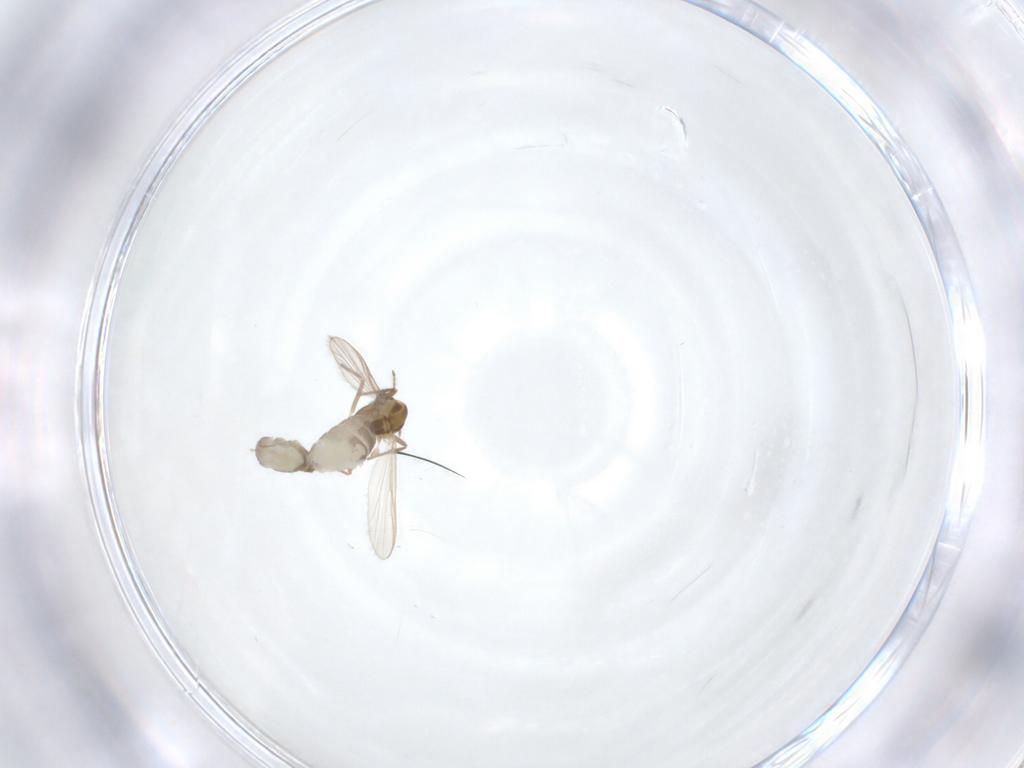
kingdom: Animalia
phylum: Arthropoda
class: Insecta
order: Diptera
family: Chironomidae
